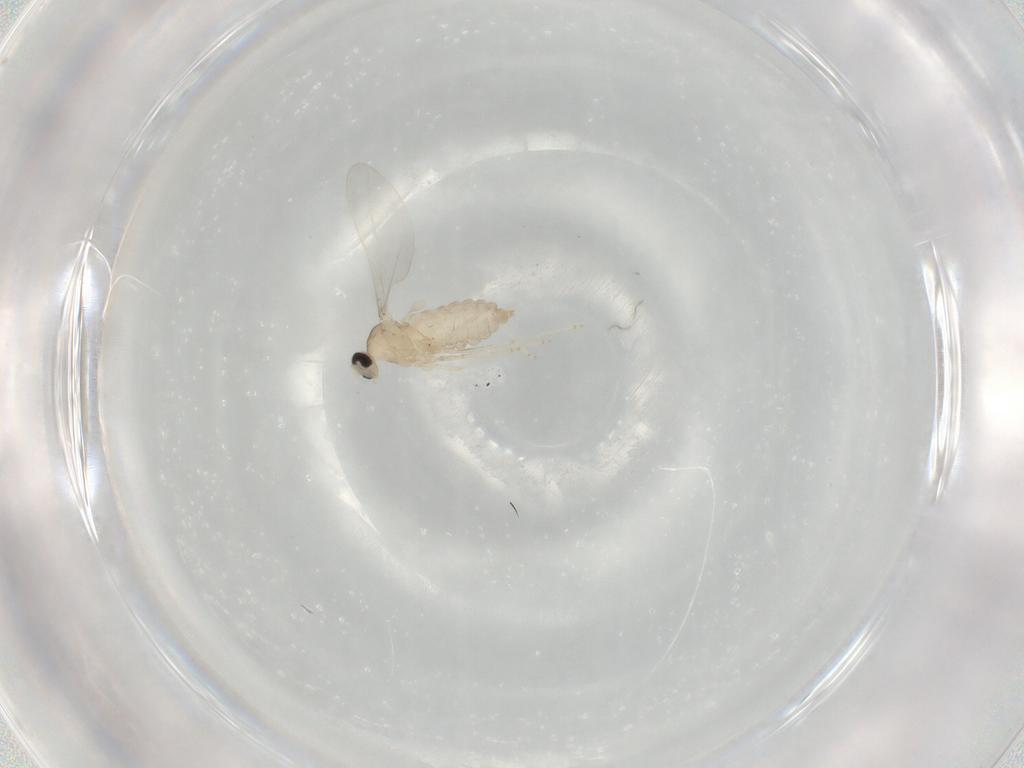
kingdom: Animalia
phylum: Arthropoda
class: Insecta
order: Diptera
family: Cecidomyiidae
